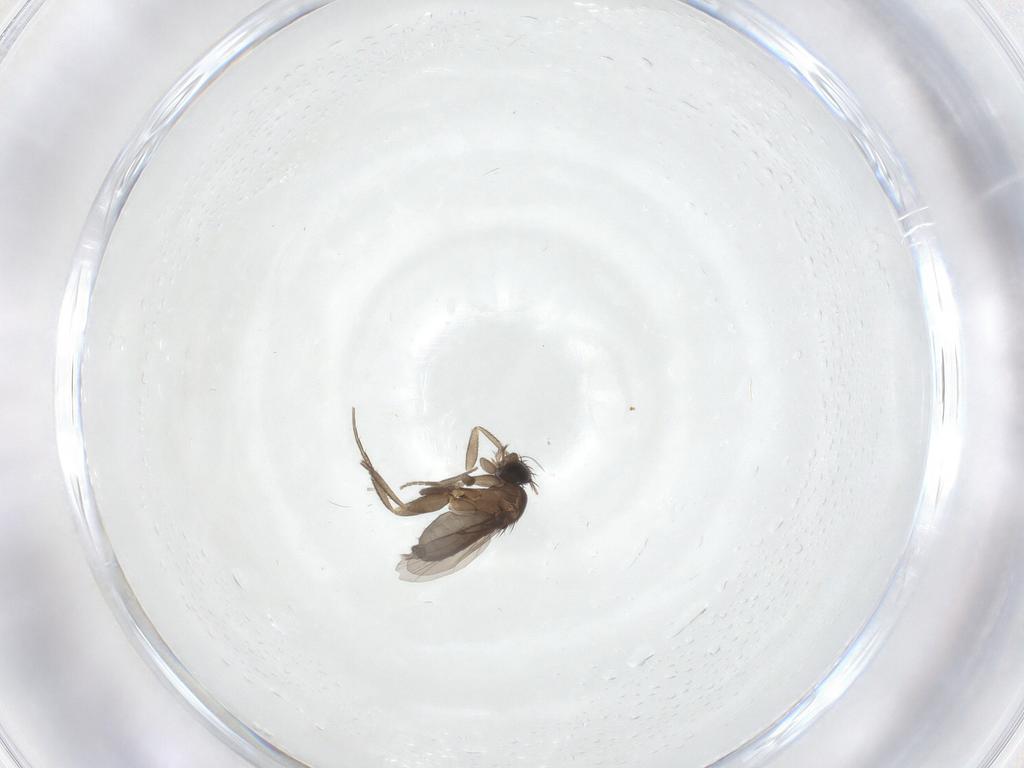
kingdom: Animalia
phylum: Arthropoda
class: Insecta
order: Diptera
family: Phoridae
